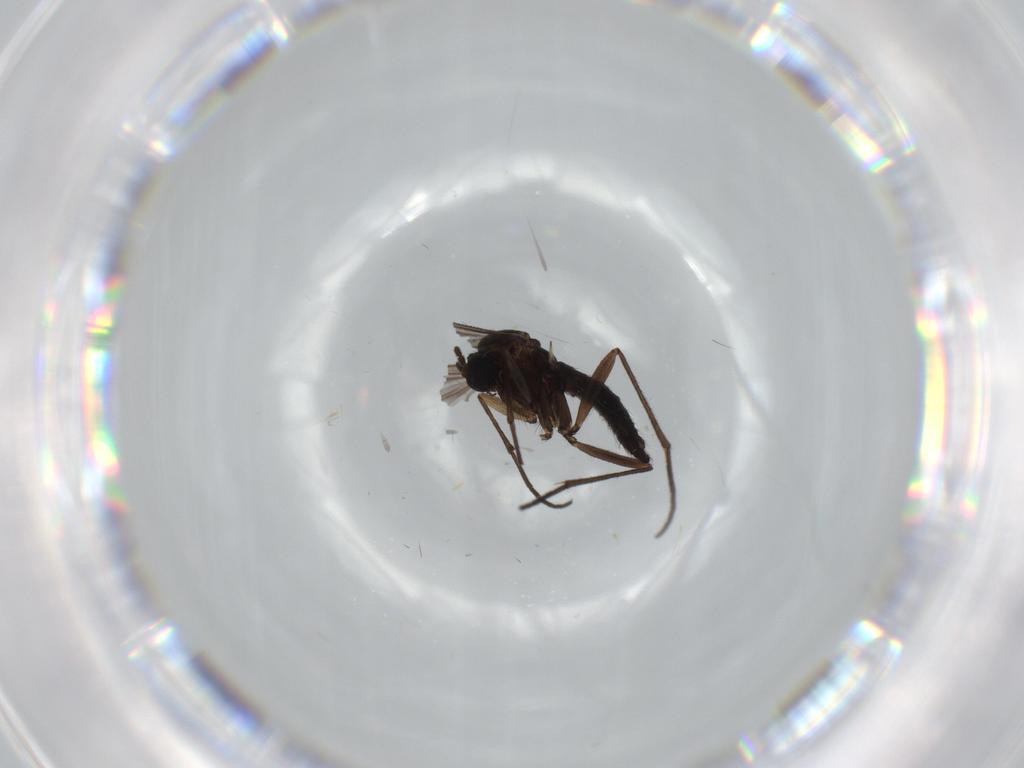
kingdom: Animalia
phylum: Arthropoda
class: Insecta
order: Diptera
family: Sciaridae
